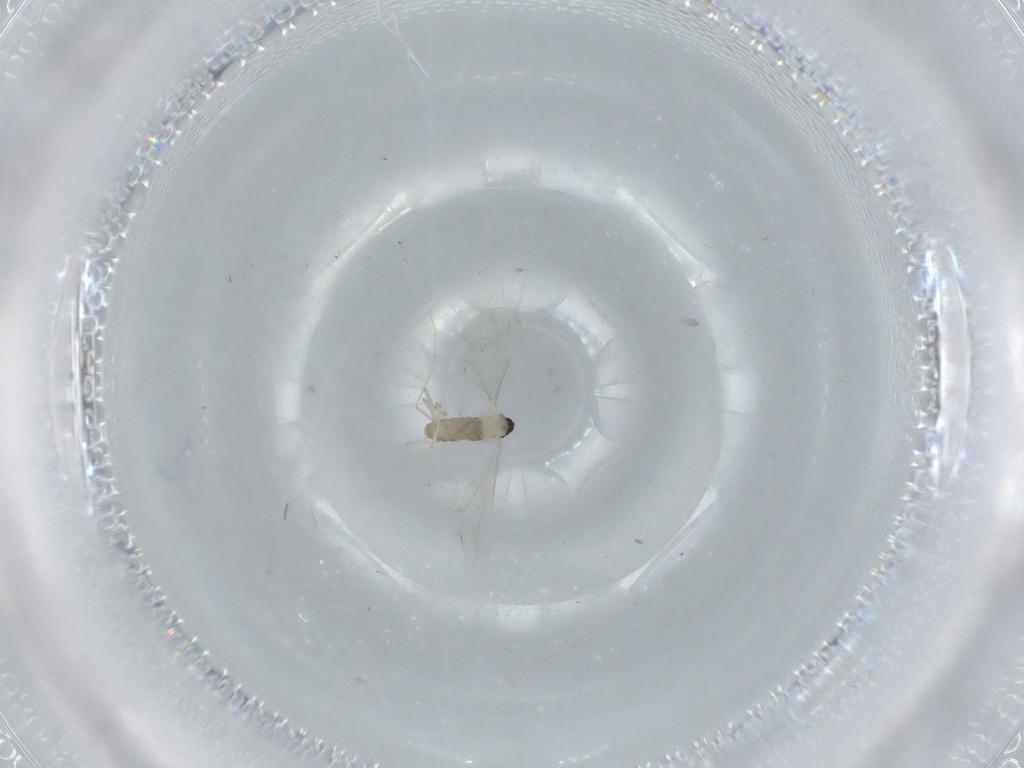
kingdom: Animalia
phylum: Arthropoda
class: Insecta
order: Diptera
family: Cecidomyiidae
